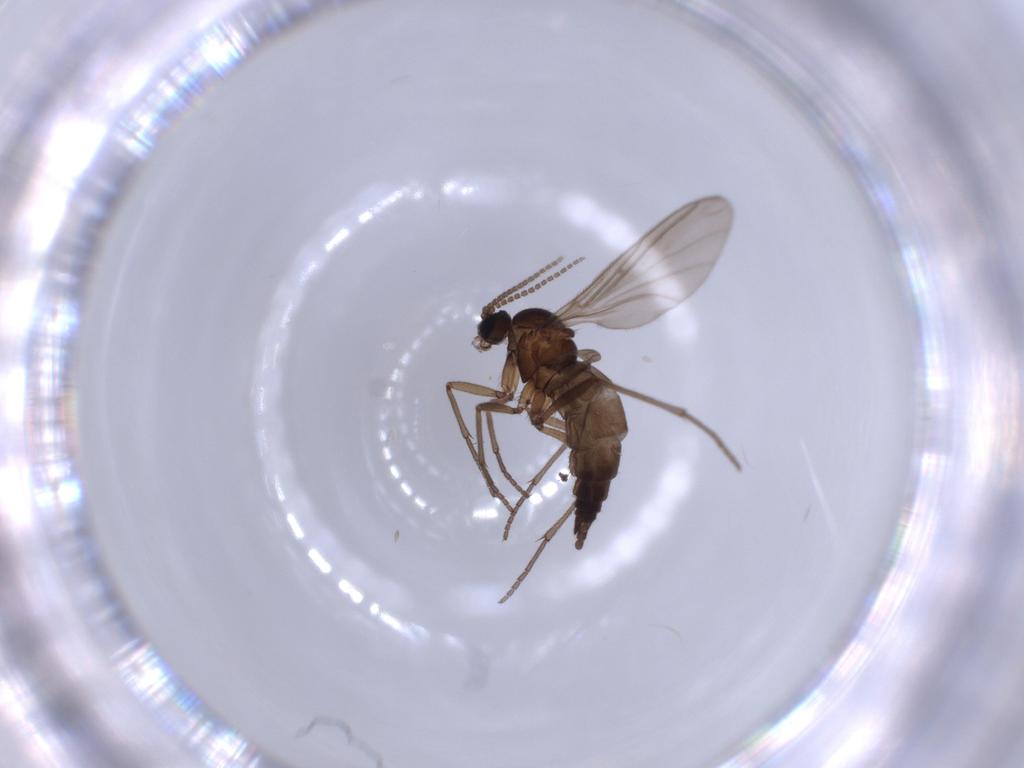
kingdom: Animalia
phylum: Arthropoda
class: Insecta
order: Diptera
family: Sciaridae
